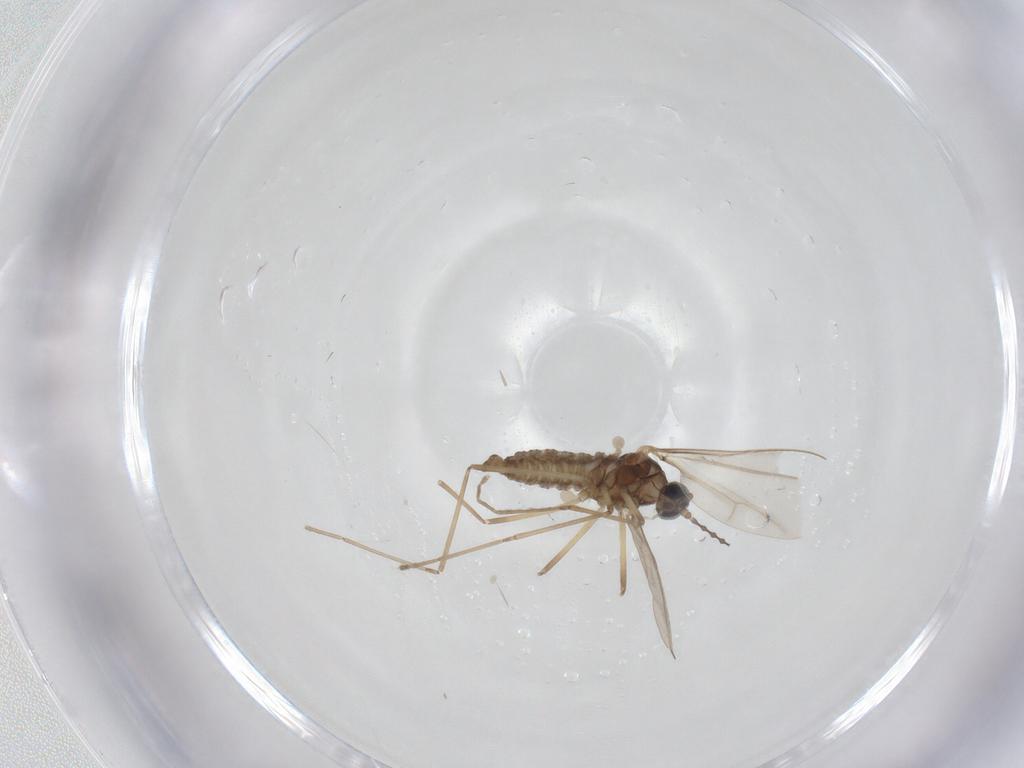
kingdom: Animalia
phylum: Arthropoda
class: Insecta
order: Diptera
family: Cecidomyiidae
